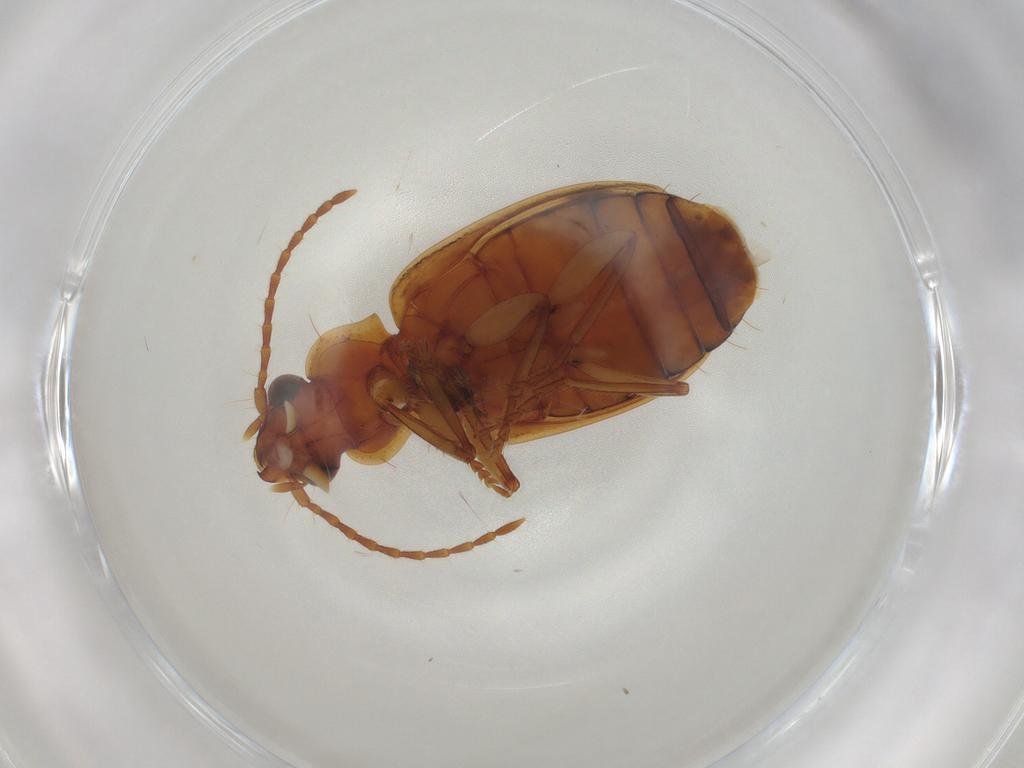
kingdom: Animalia
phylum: Arthropoda
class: Insecta
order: Coleoptera
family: Carabidae
